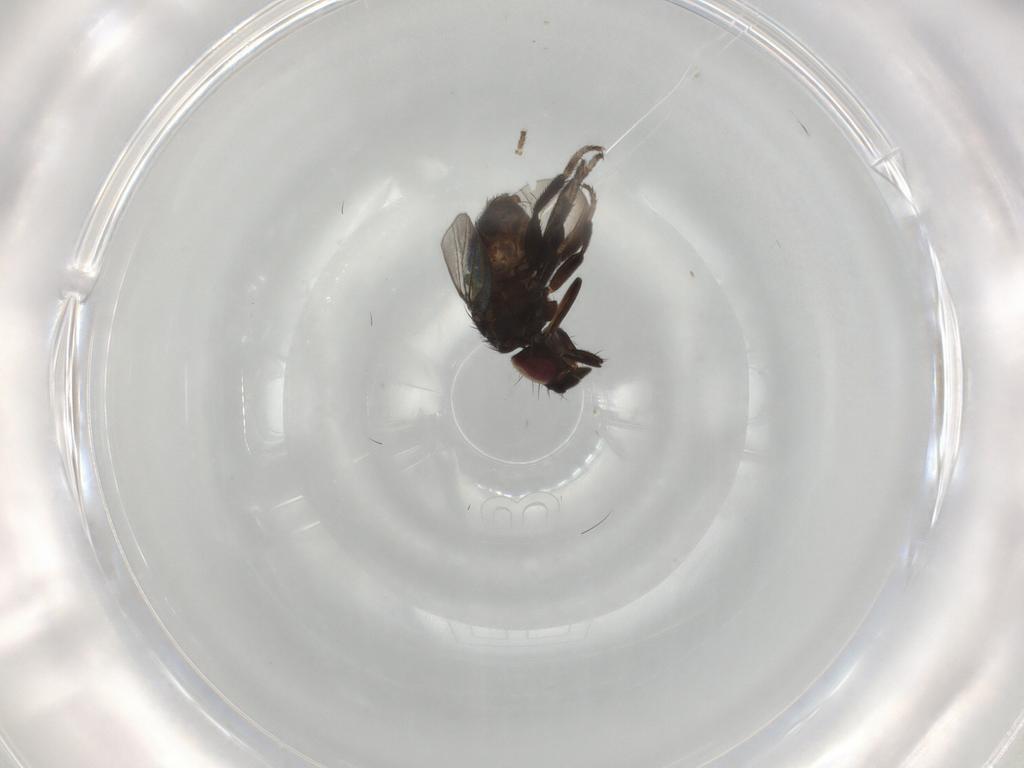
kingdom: Animalia
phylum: Arthropoda
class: Insecta
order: Diptera
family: Milichiidae
